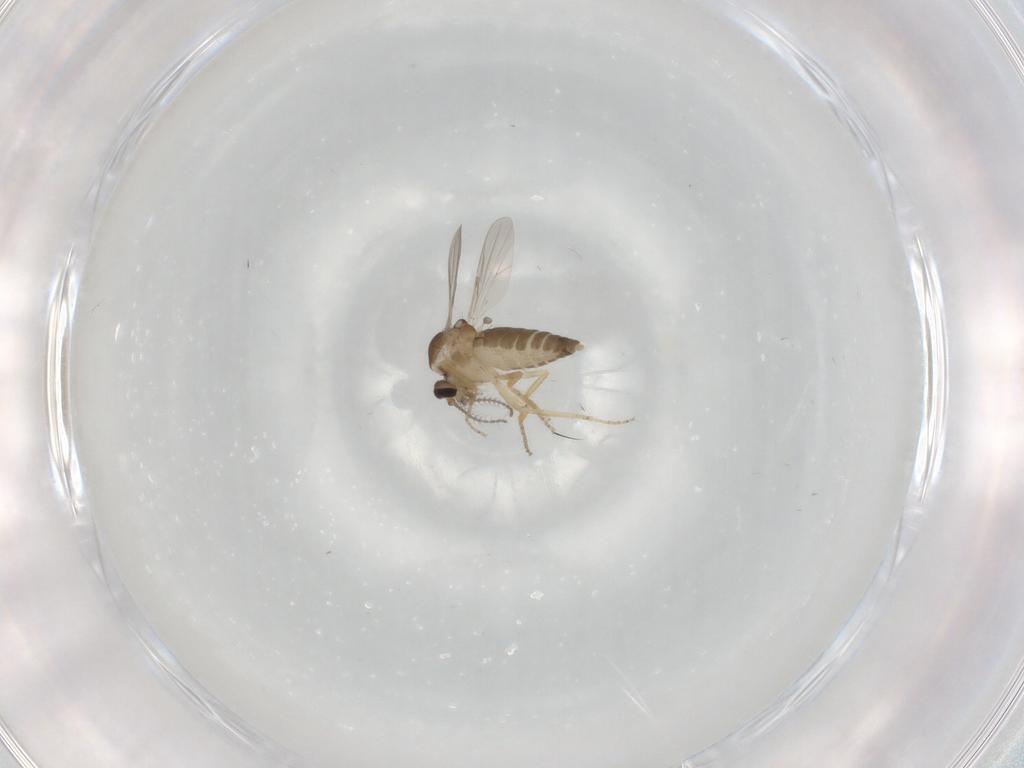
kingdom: Animalia
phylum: Arthropoda
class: Insecta
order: Diptera
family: Ceratopogonidae
